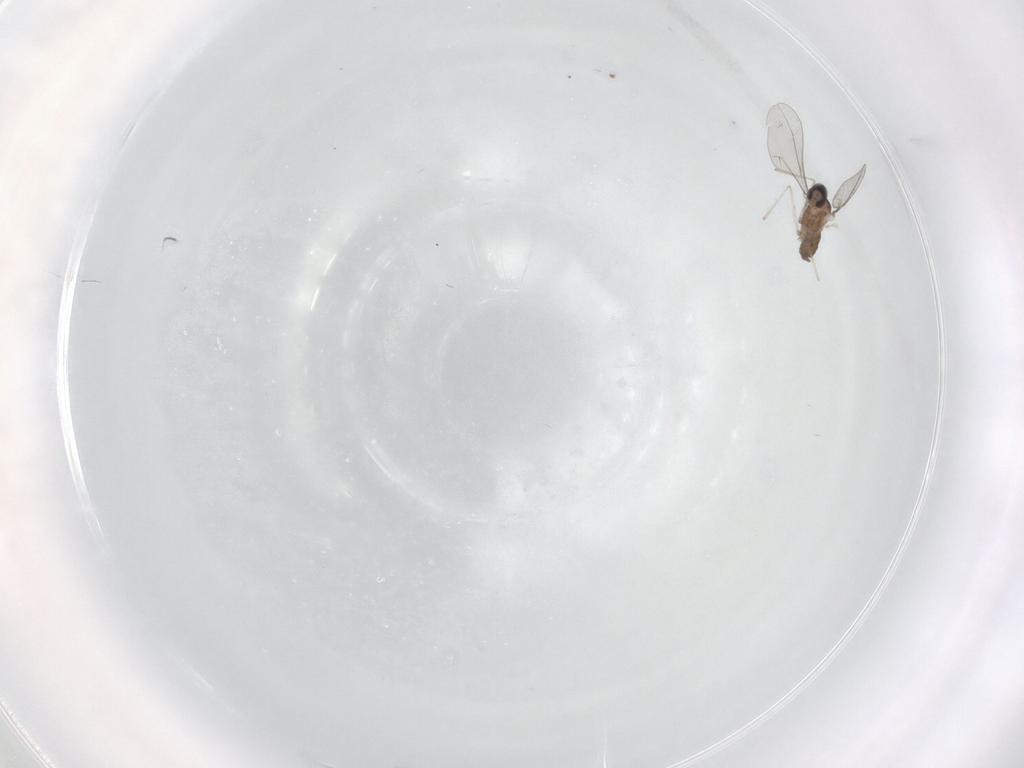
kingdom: Animalia
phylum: Arthropoda
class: Insecta
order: Diptera
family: Cecidomyiidae
